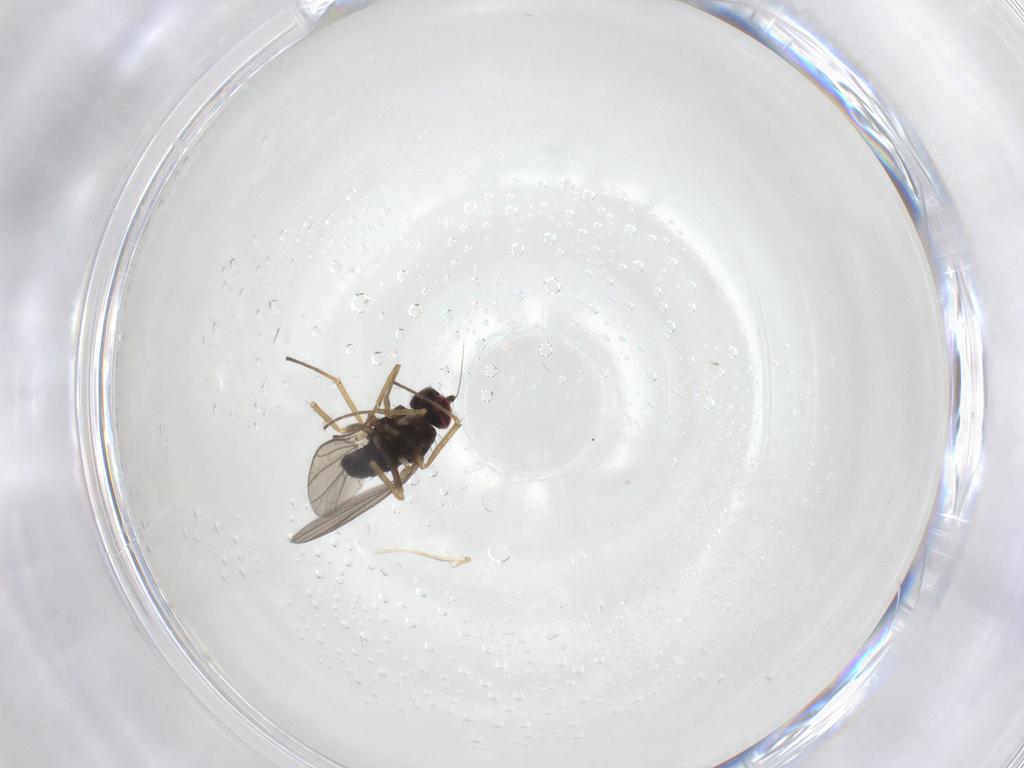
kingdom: Animalia
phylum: Arthropoda
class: Insecta
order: Diptera
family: Dolichopodidae
